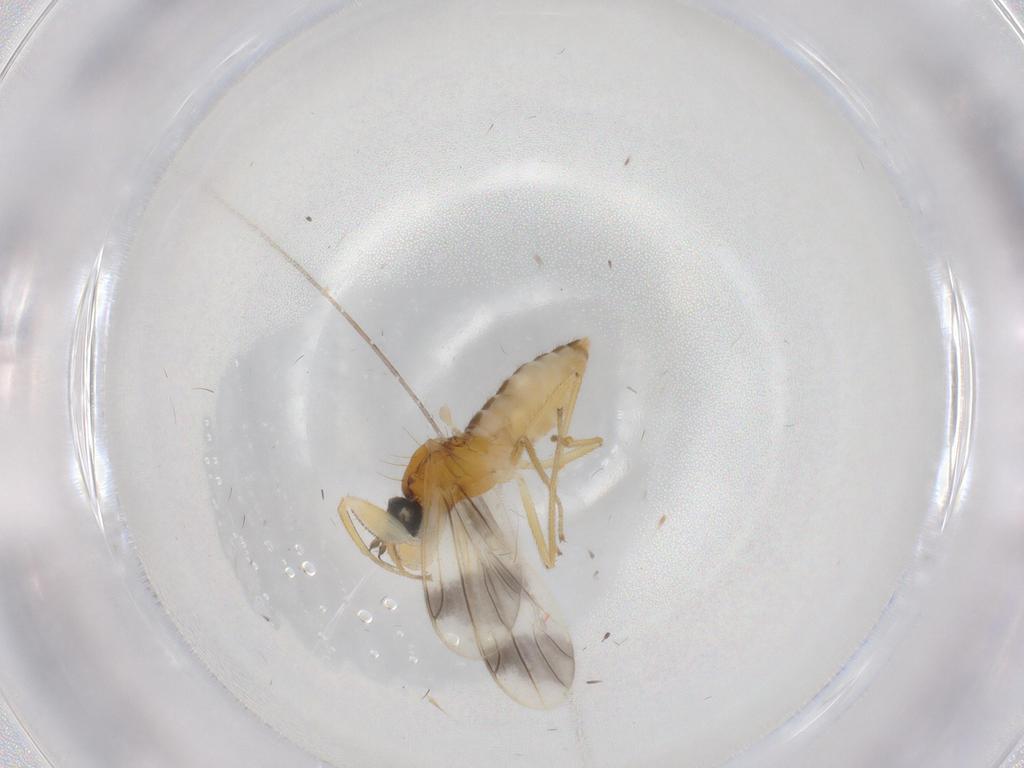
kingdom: Animalia
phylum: Arthropoda
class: Insecta
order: Diptera
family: Empididae
